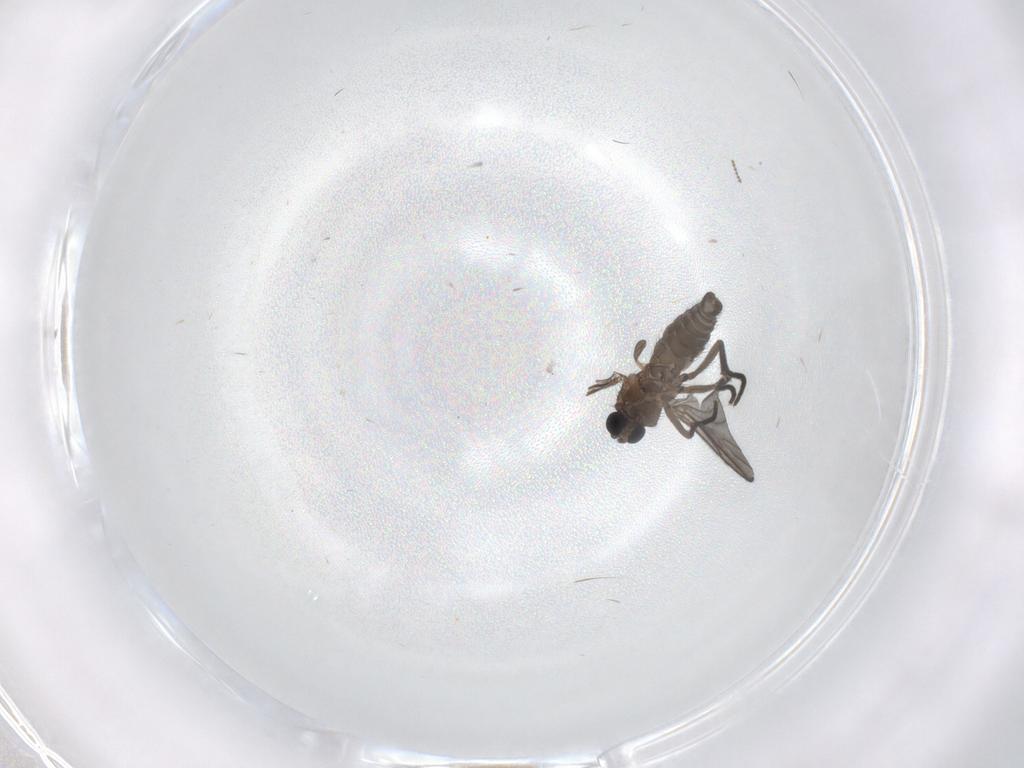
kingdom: Animalia
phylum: Arthropoda
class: Insecta
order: Diptera
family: Sciaridae
